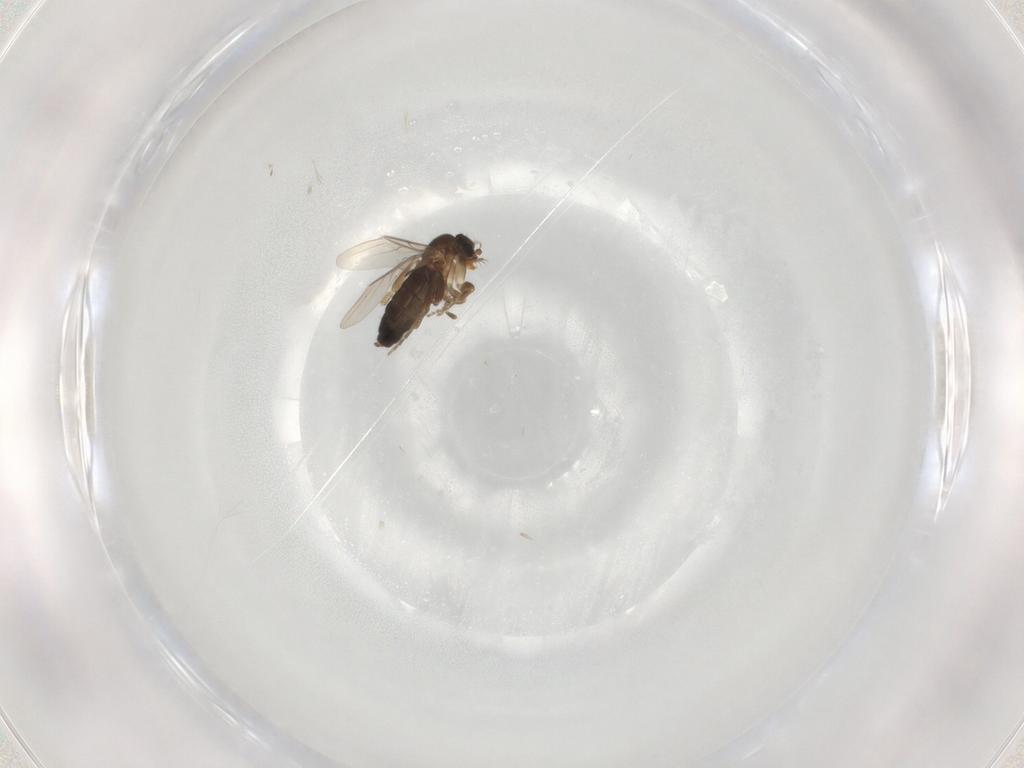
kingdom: Animalia
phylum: Arthropoda
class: Insecta
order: Diptera
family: Phoridae
